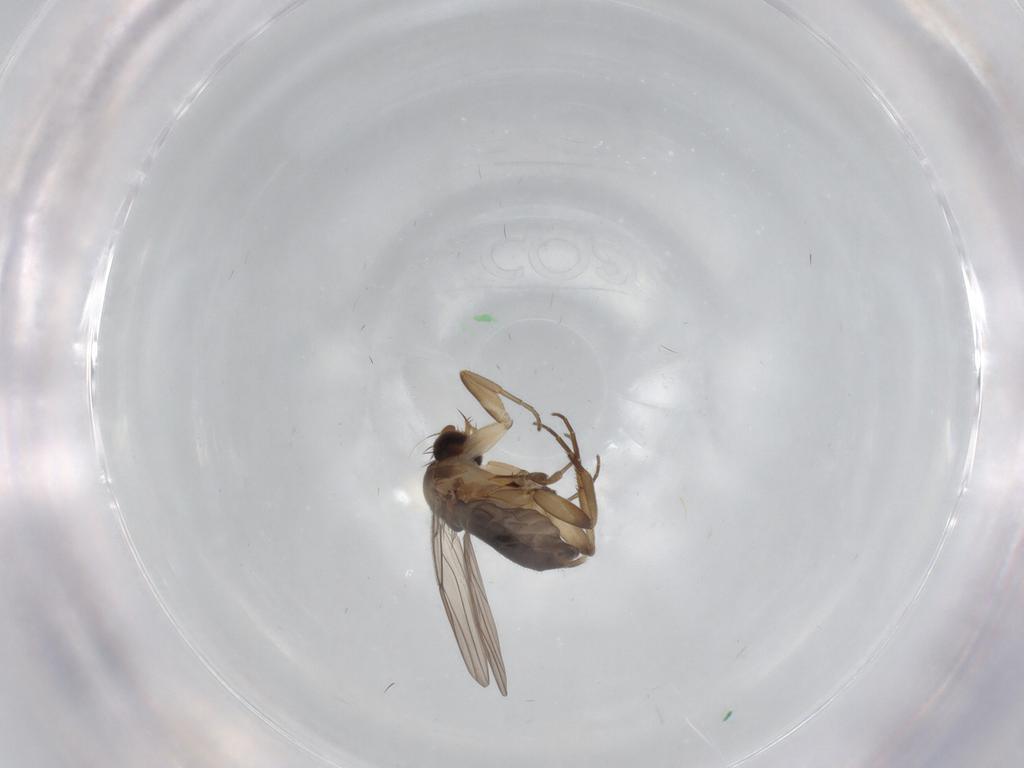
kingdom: Animalia
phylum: Arthropoda
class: Insecta
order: Diptera
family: Phoridae
